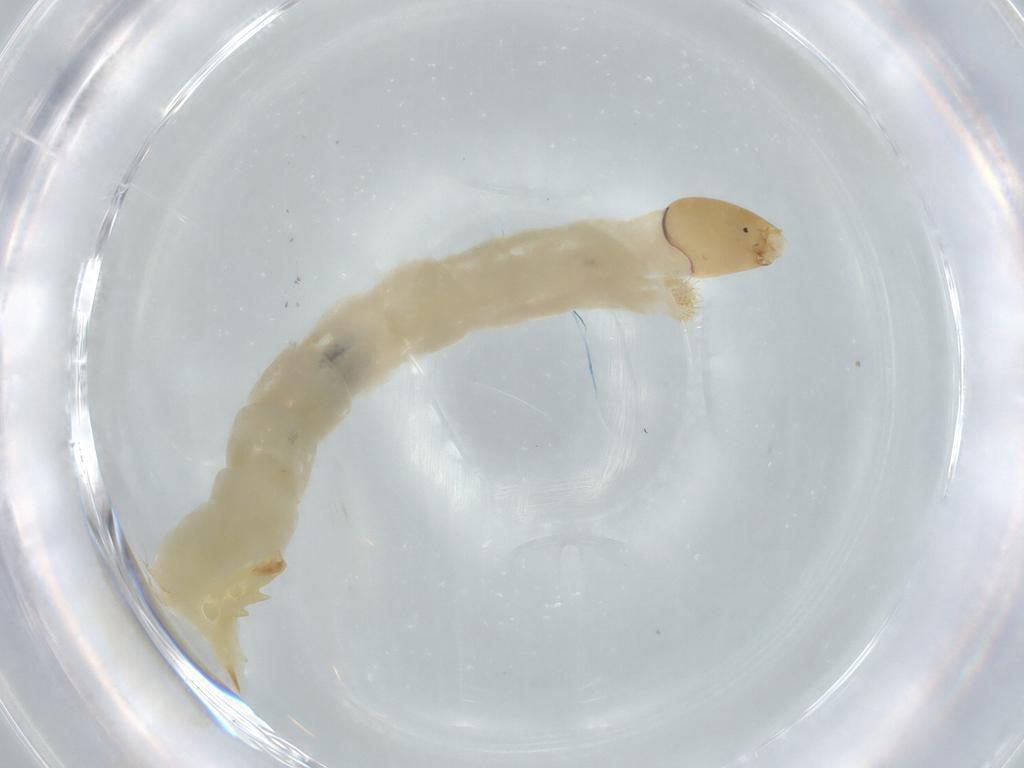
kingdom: Animalia
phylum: Arthropoda
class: Insecta
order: Diptera
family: Chironomidae
